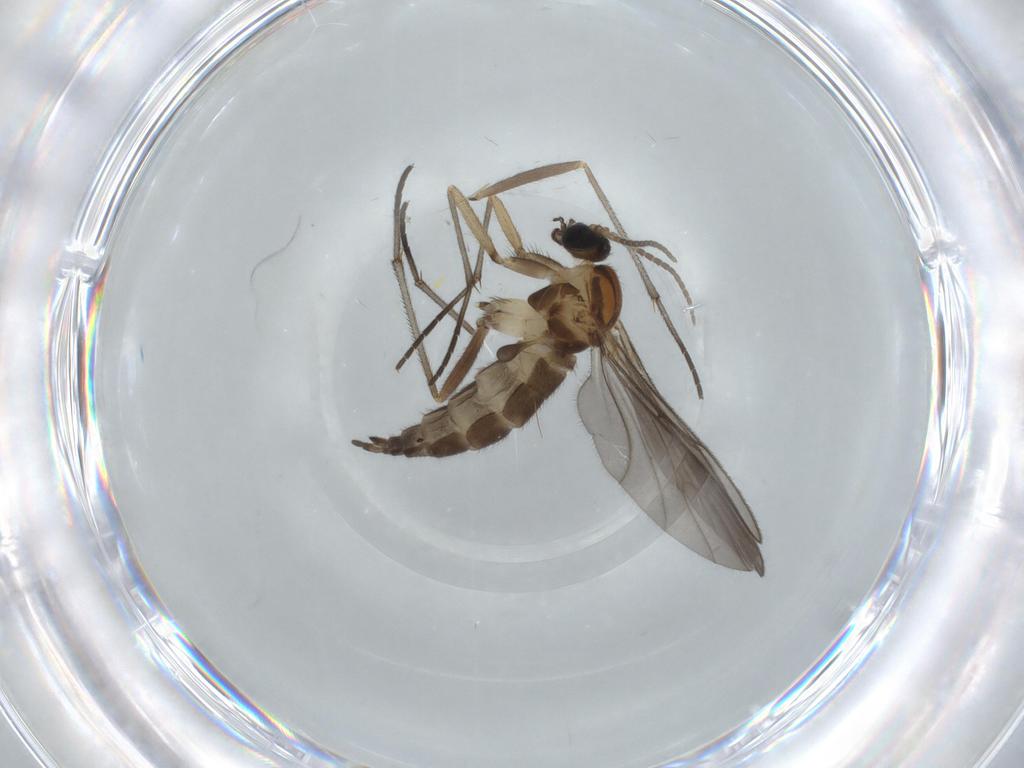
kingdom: Animalia
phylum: Arthropoda
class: Insecta
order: Diptera
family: Sciaridae
